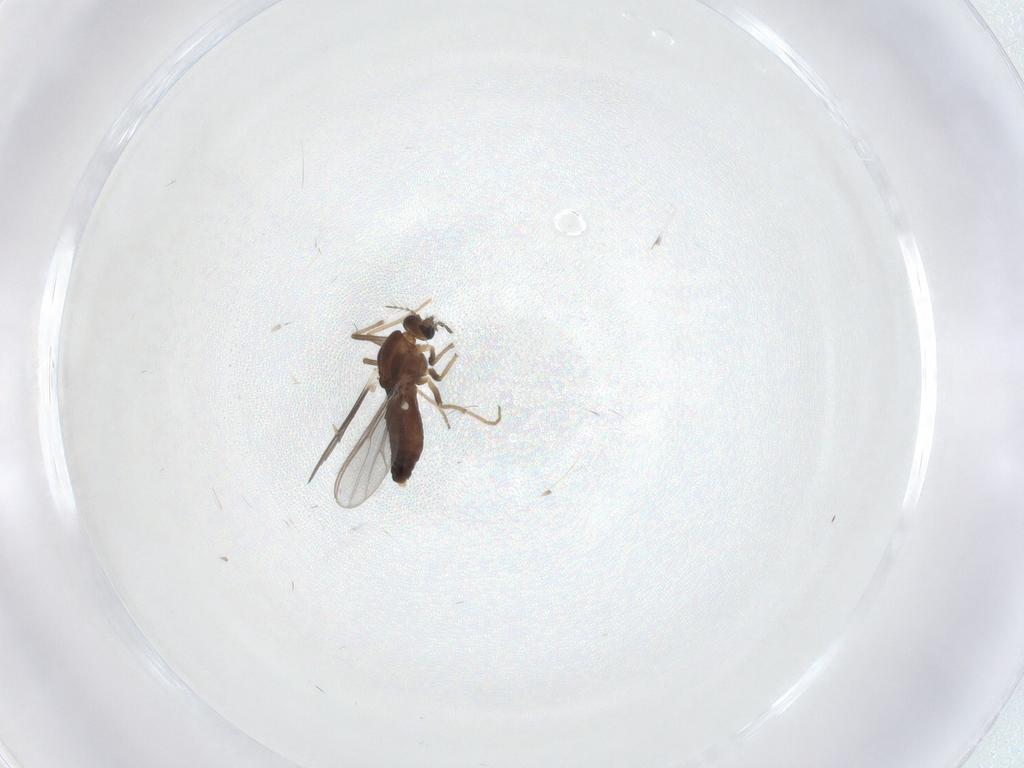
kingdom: Animalia
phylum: Arthropoda
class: Insecta
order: Diptera
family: Chironomidae
